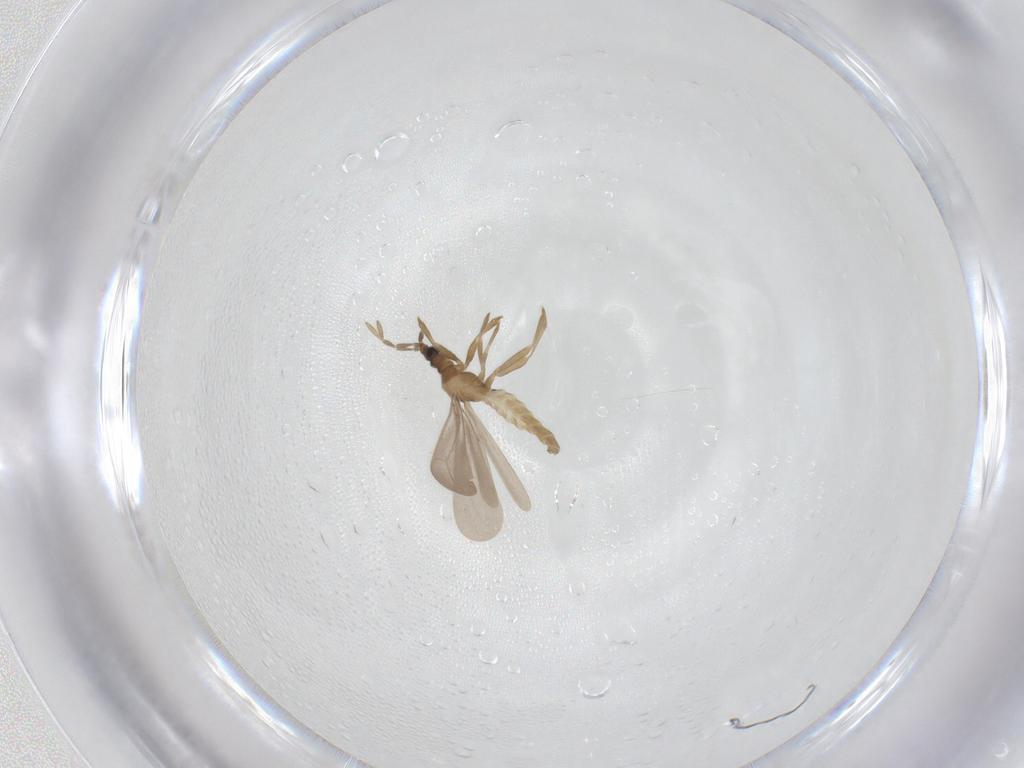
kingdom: Animalia
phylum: Arthropoda
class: Insecta
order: Hemiptera
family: Enicocephalidae
